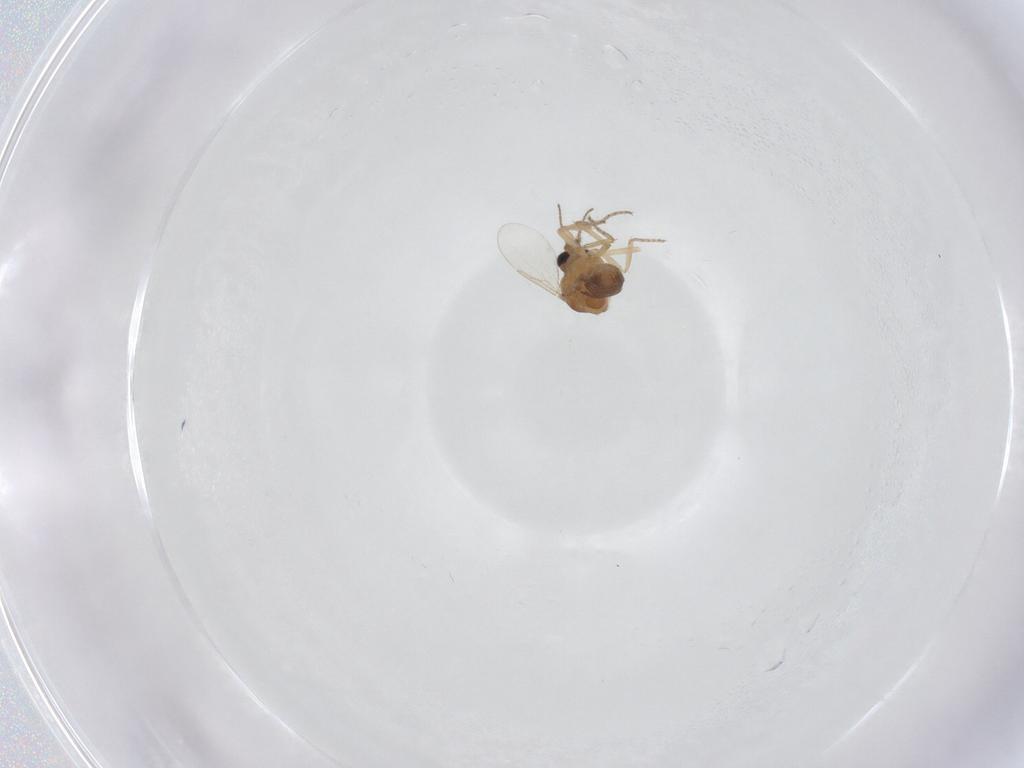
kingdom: Animalia
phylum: Arthropoda
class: Insecta
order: Diptera
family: Ceratopogonidae
